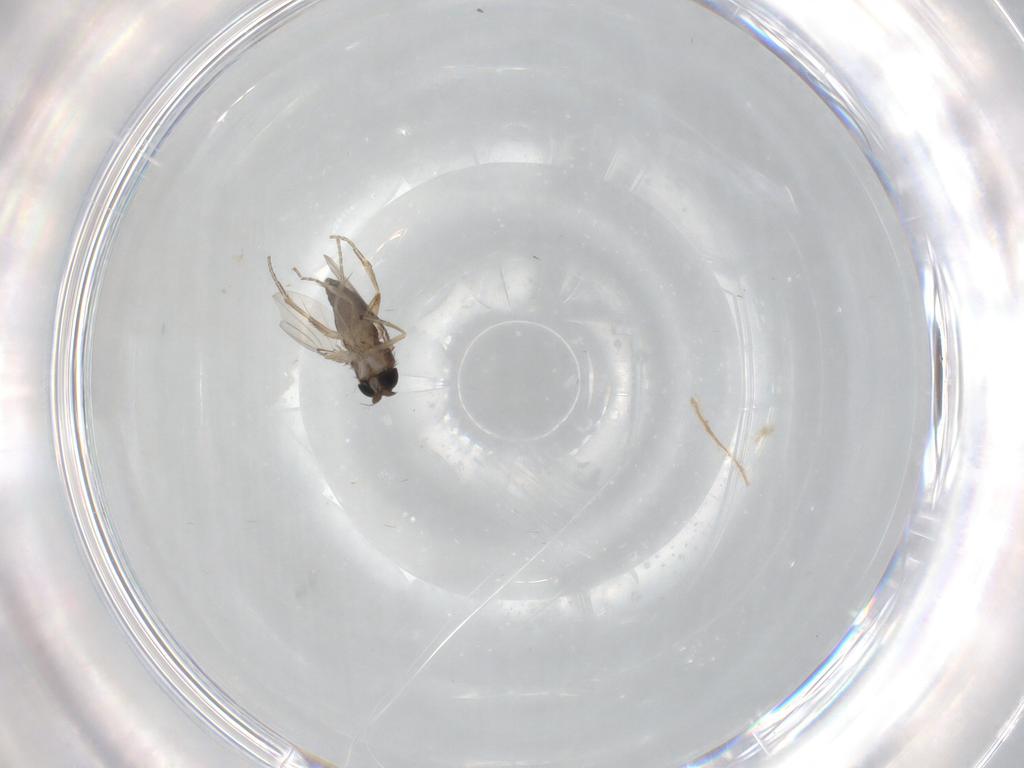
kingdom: Animalia
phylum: Arthropoda
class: Insecta
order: Diptera
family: Phoridae
